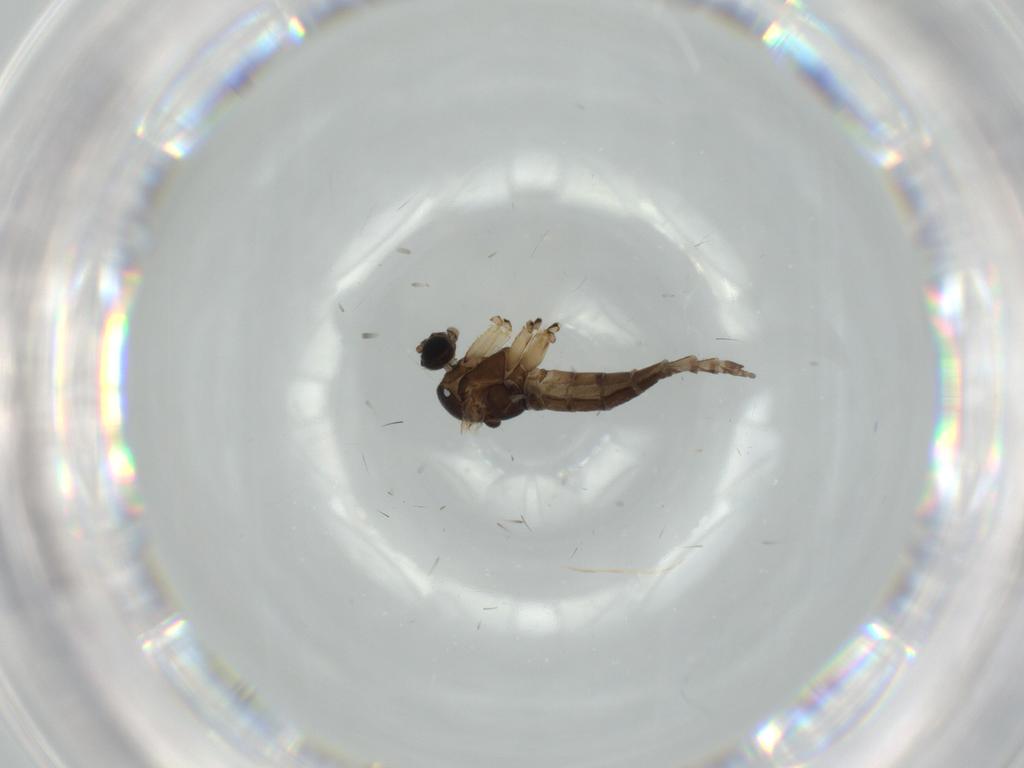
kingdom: Animalia
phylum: Arthropoda
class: Insecta
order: Diptera
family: Sciaridae
